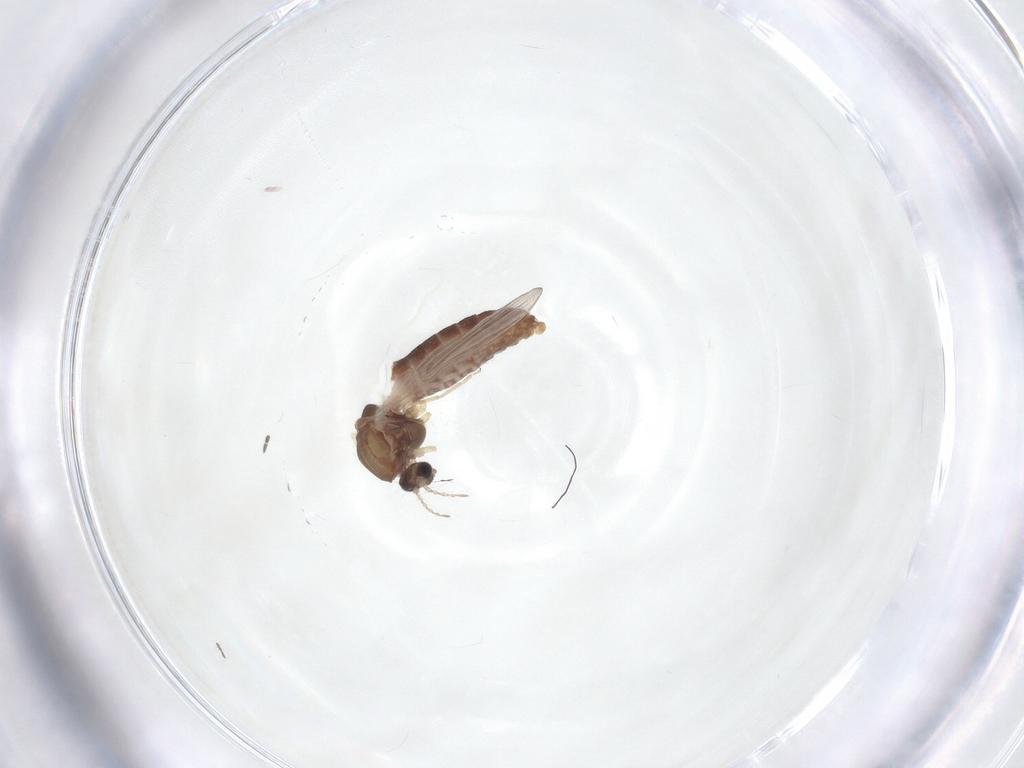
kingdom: Animalia
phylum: Arthropoda
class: Insecta
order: Diptera
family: Chironomidae
